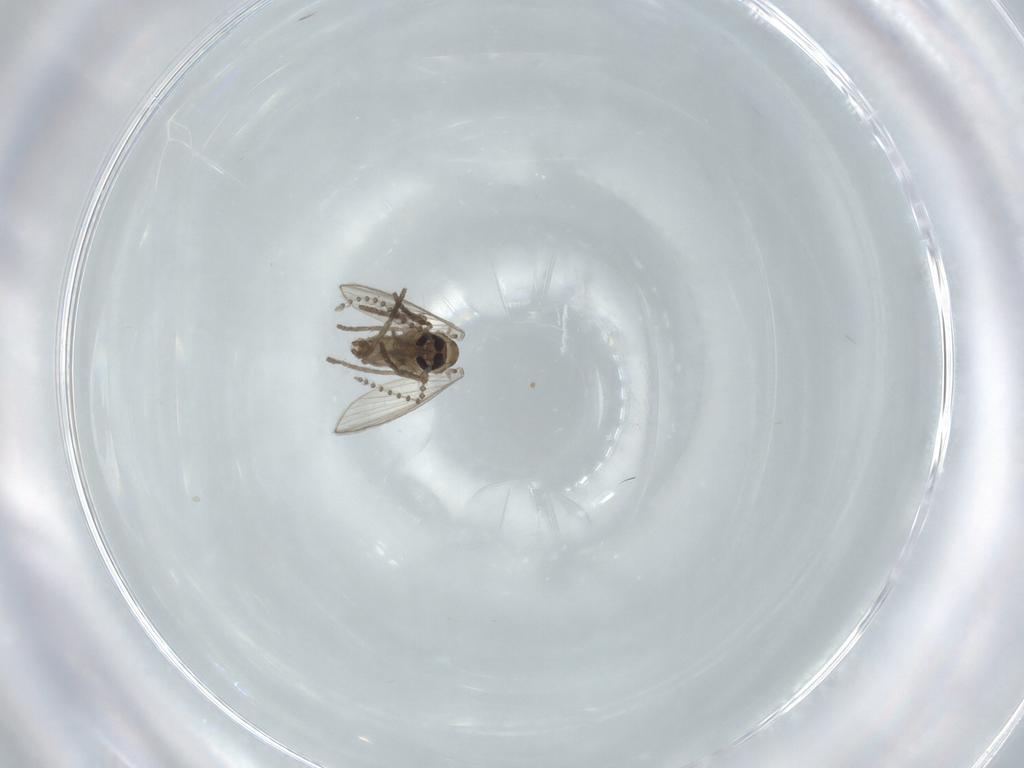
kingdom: Animalia
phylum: Arthropoda
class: Insecta
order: Diptera
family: Psychodidae
